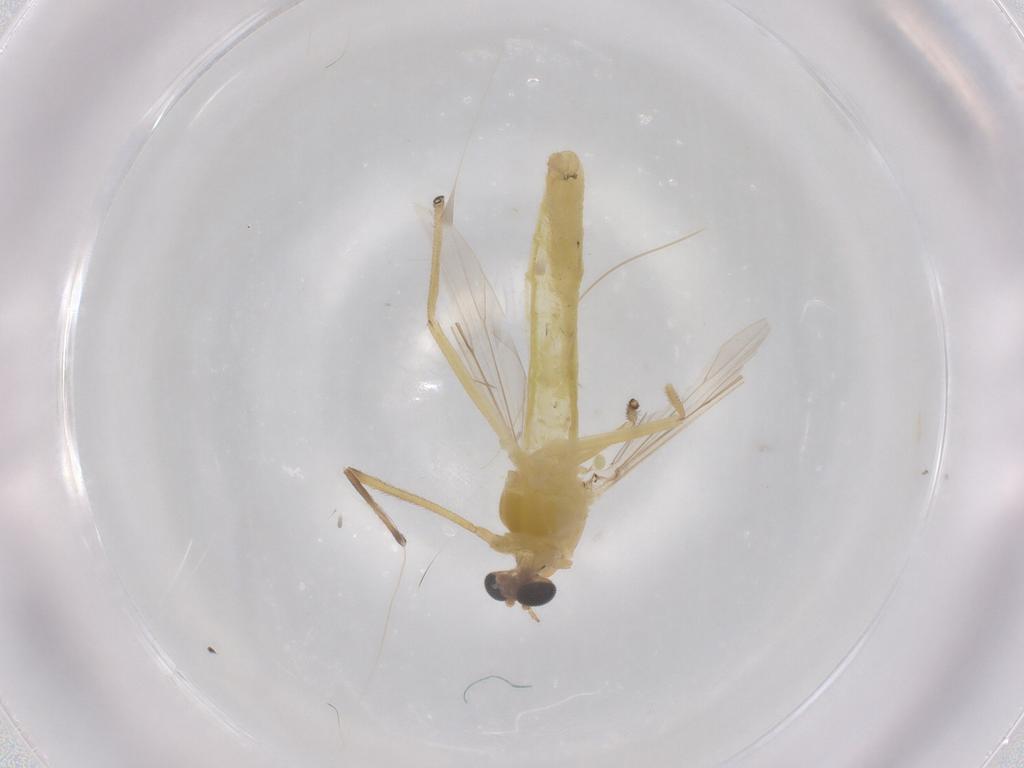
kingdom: Animalia
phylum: Arthropoda
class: Insecta
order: Diptera
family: Chironomidae
